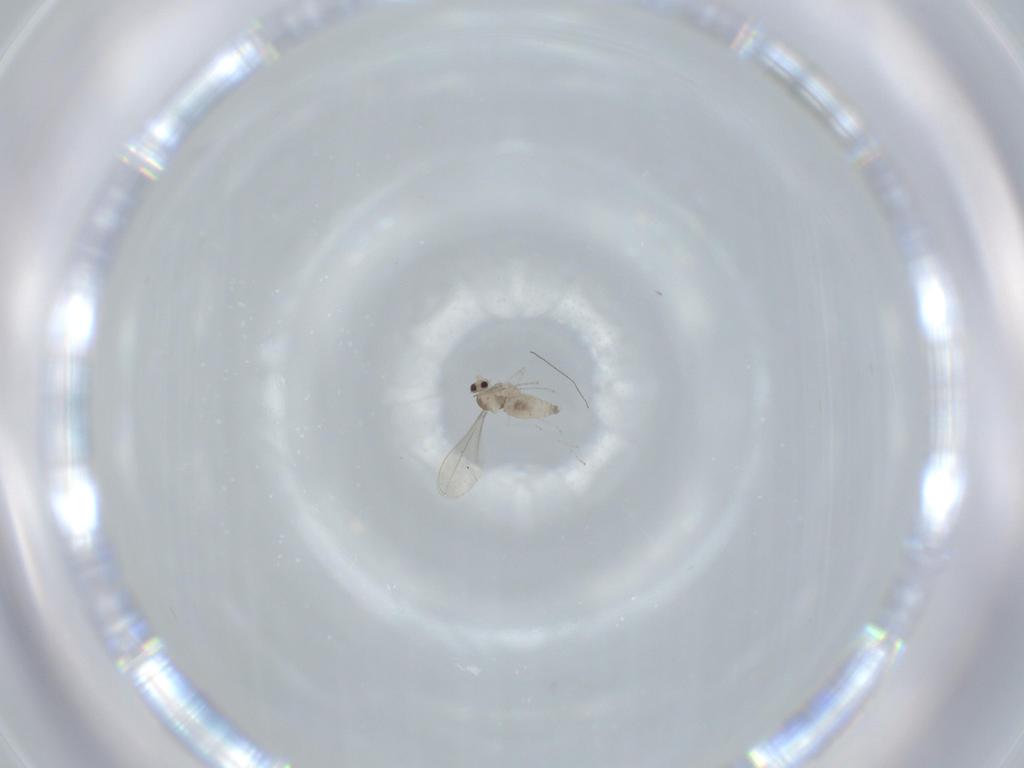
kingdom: Animalia
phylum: Arthropoda
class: Insecta
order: Diptera
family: Cecidomyiidae
